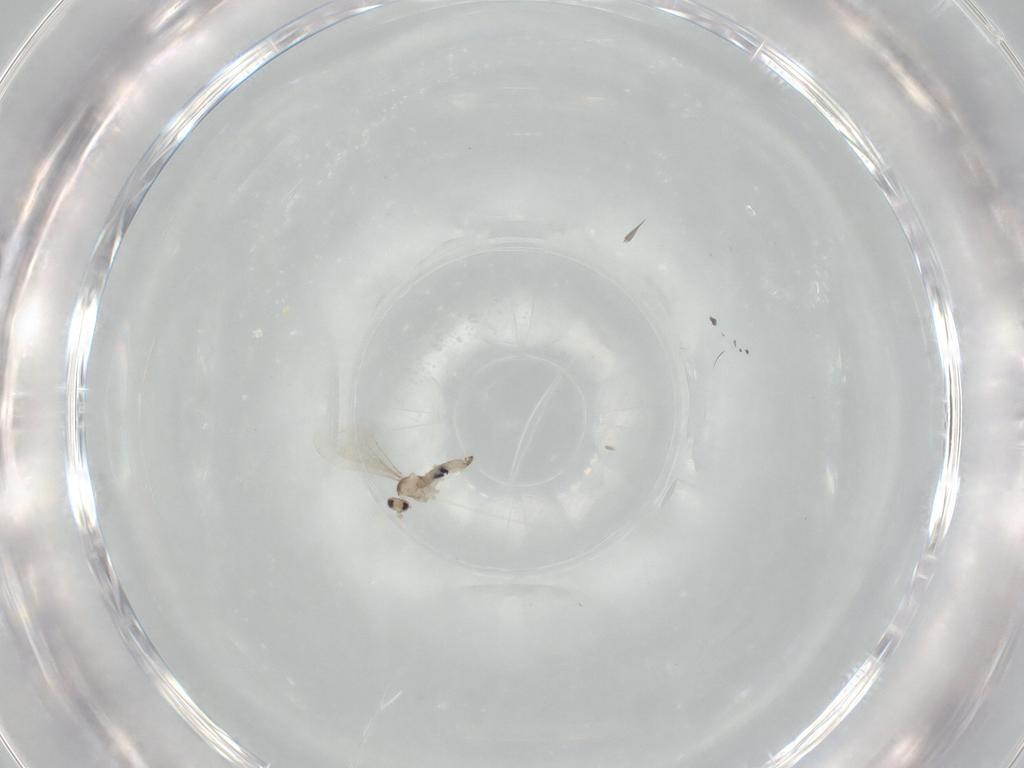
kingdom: Animalia
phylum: Arthropoda
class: Insecta
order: Diptera
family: Cecidomyiidae
